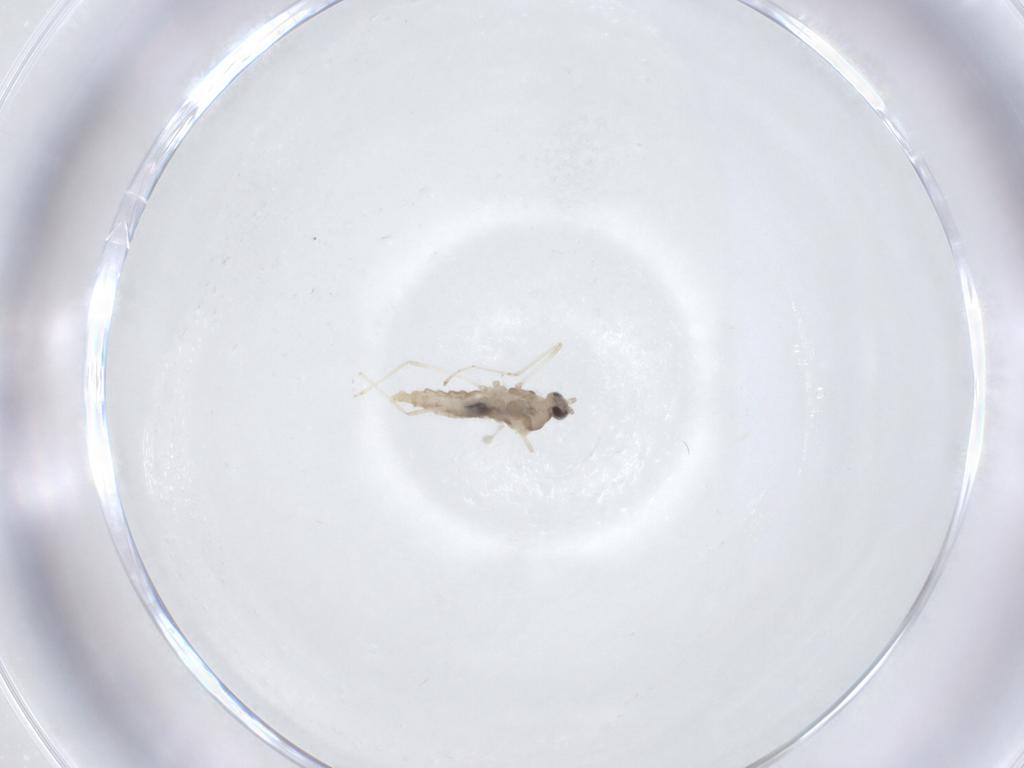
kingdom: Animalia
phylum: Arthropoda
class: Insecta
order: Diptera
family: Cecidomyiidae
